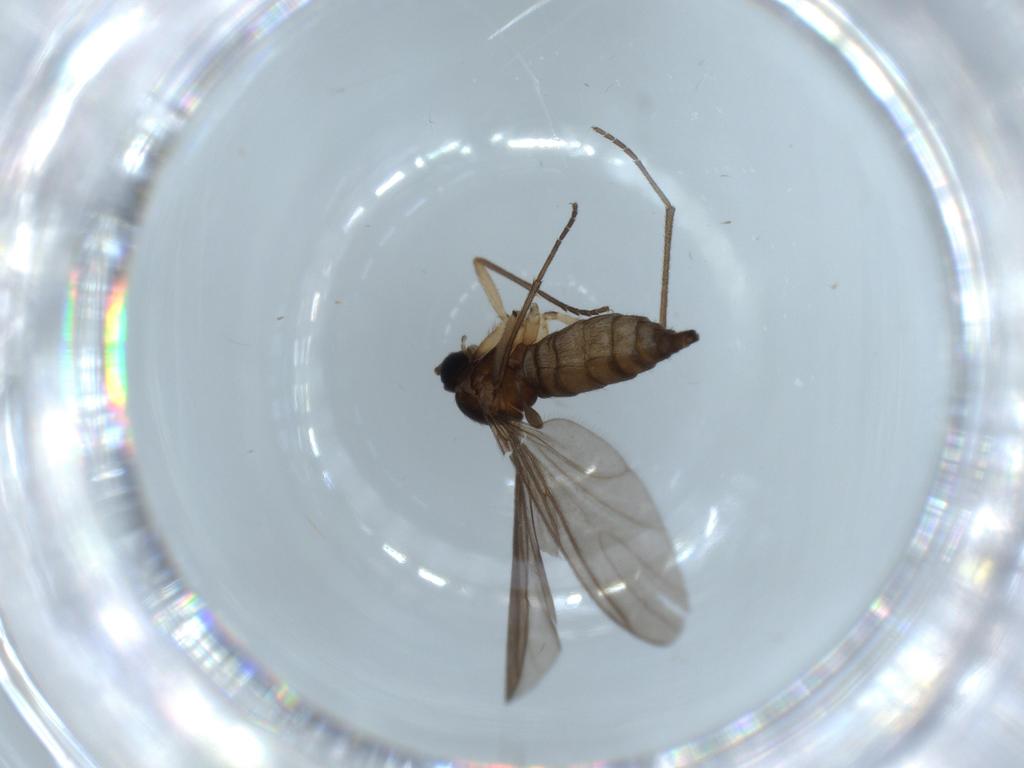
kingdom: Animalia
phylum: Arthropoda
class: Insecta
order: Diptera
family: Sciaridae
